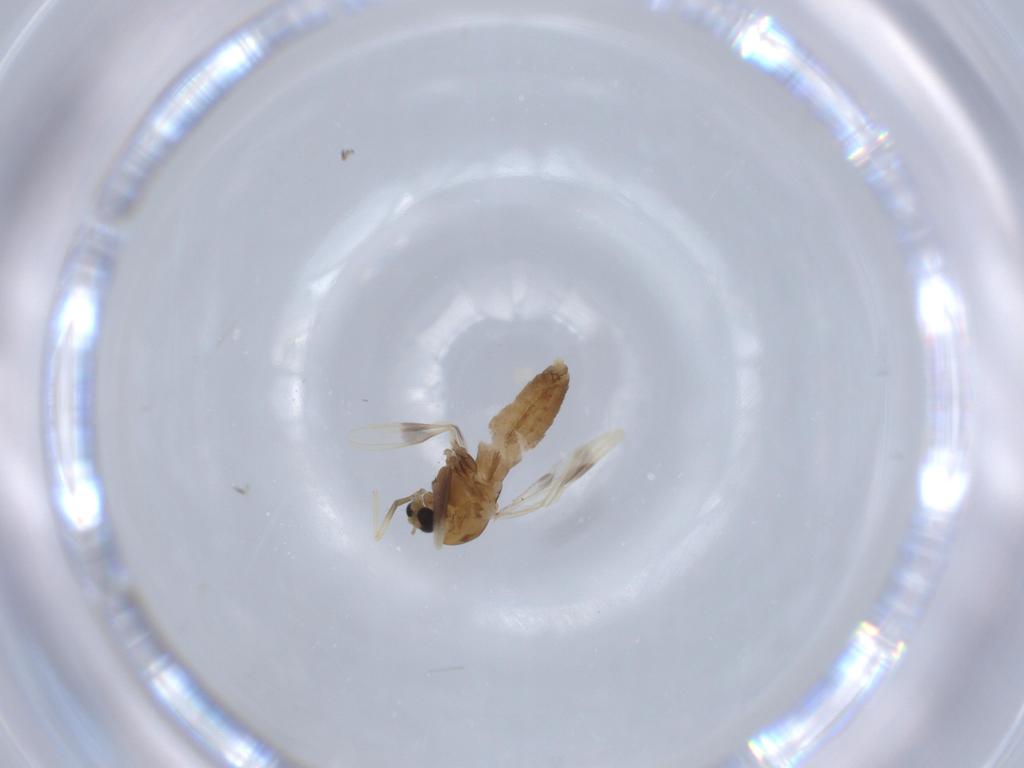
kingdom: Animalia
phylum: Arthropoda
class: Insecta
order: Diptera
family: Chironomidae
